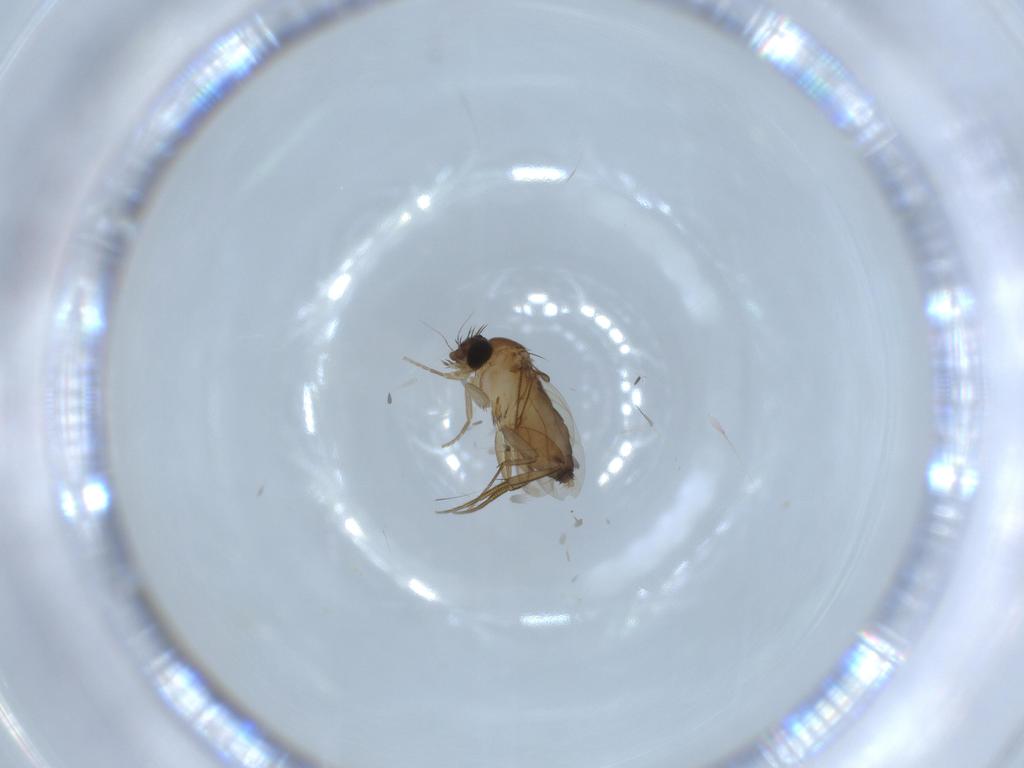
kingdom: Animalia
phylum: Arthropoda
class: Insecta
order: Diptera
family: Phoridae
